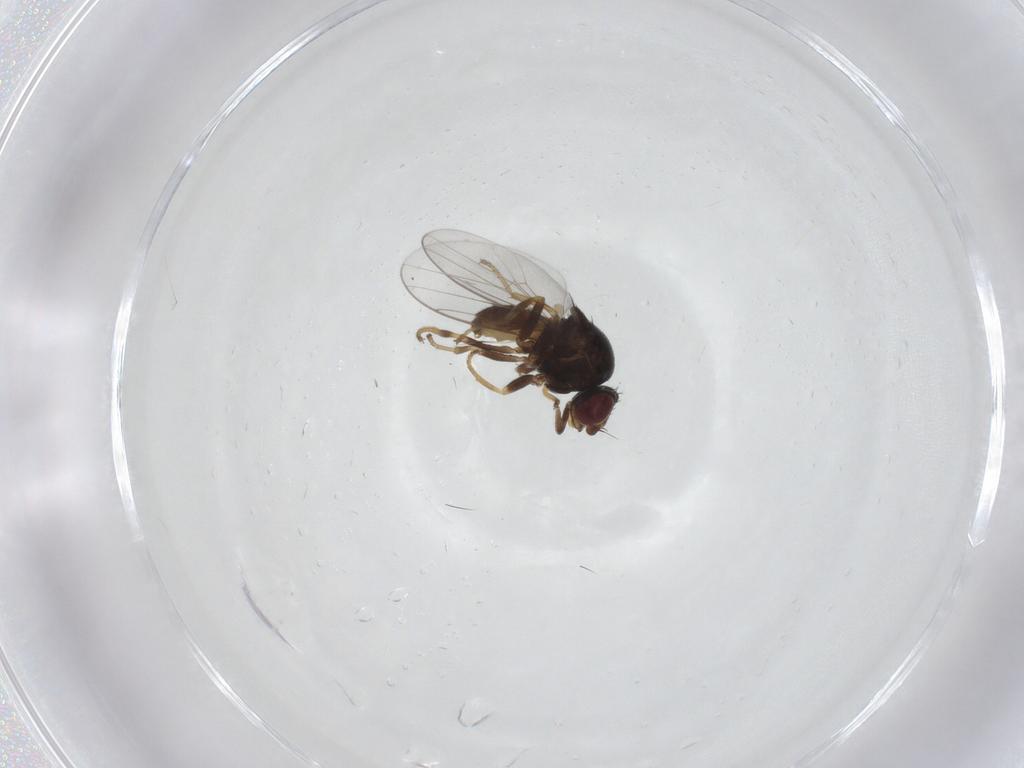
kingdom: Animalia
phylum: Arthropoda
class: Insecta
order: Diptera
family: Chloropidae
